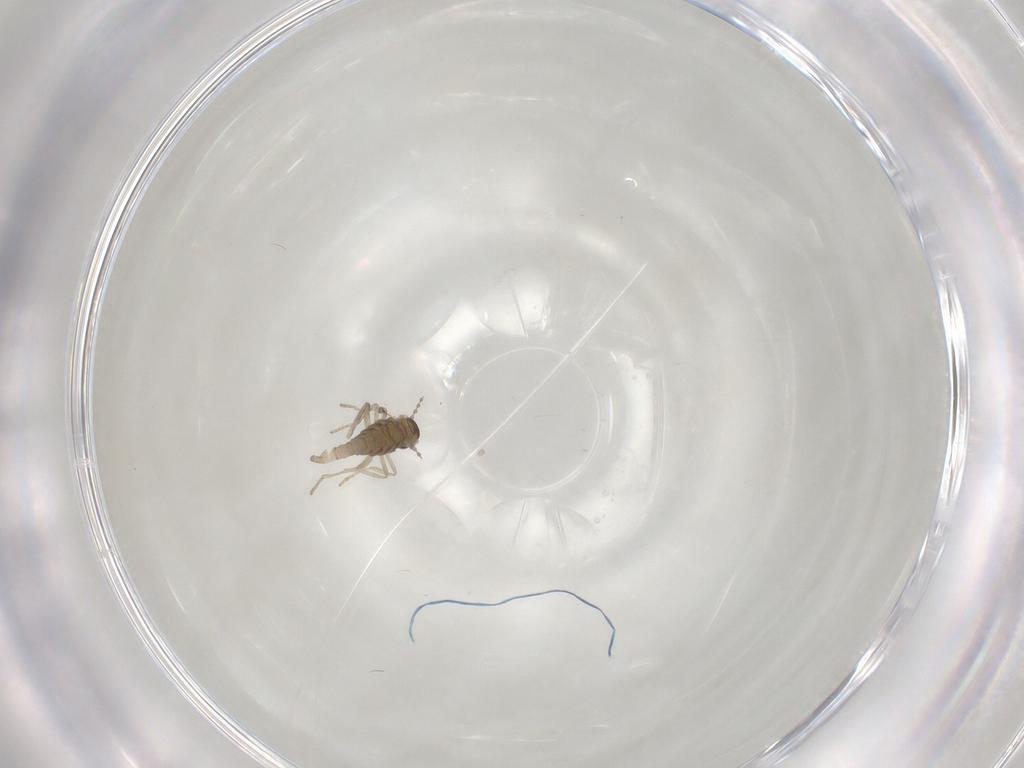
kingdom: Animalia
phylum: Arthropoda
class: Insecta
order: Diptera
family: Cecidomyiidae
